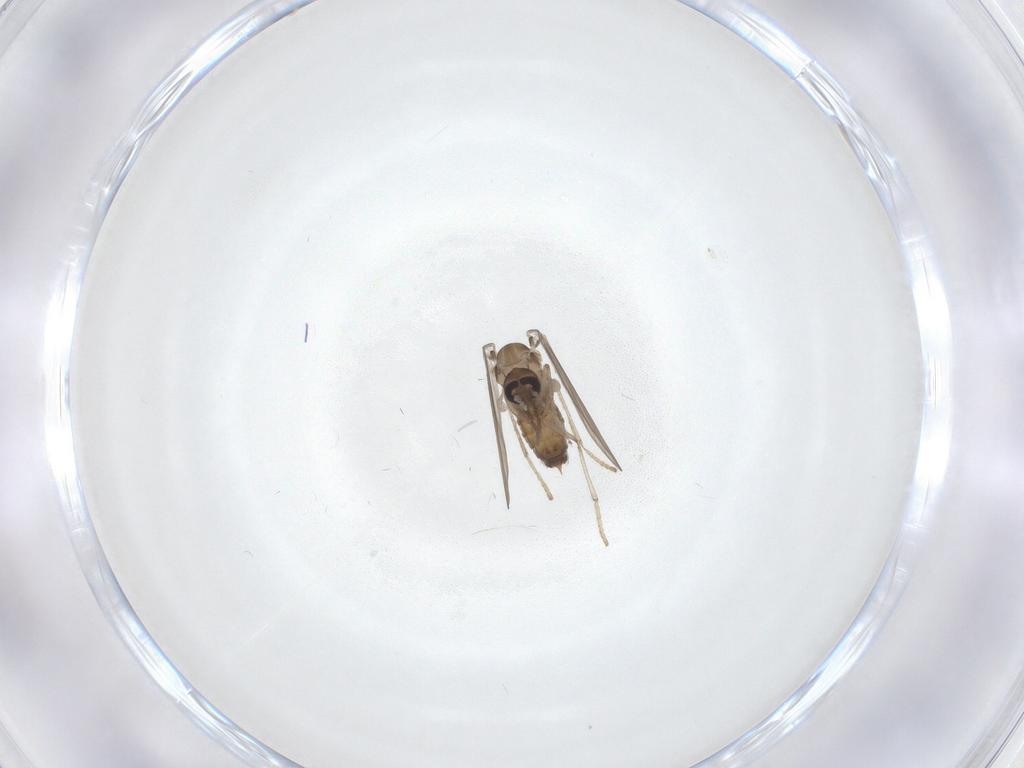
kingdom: Animalia
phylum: Arthropoda
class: Insecta
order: Diptera
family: Psychodidae
